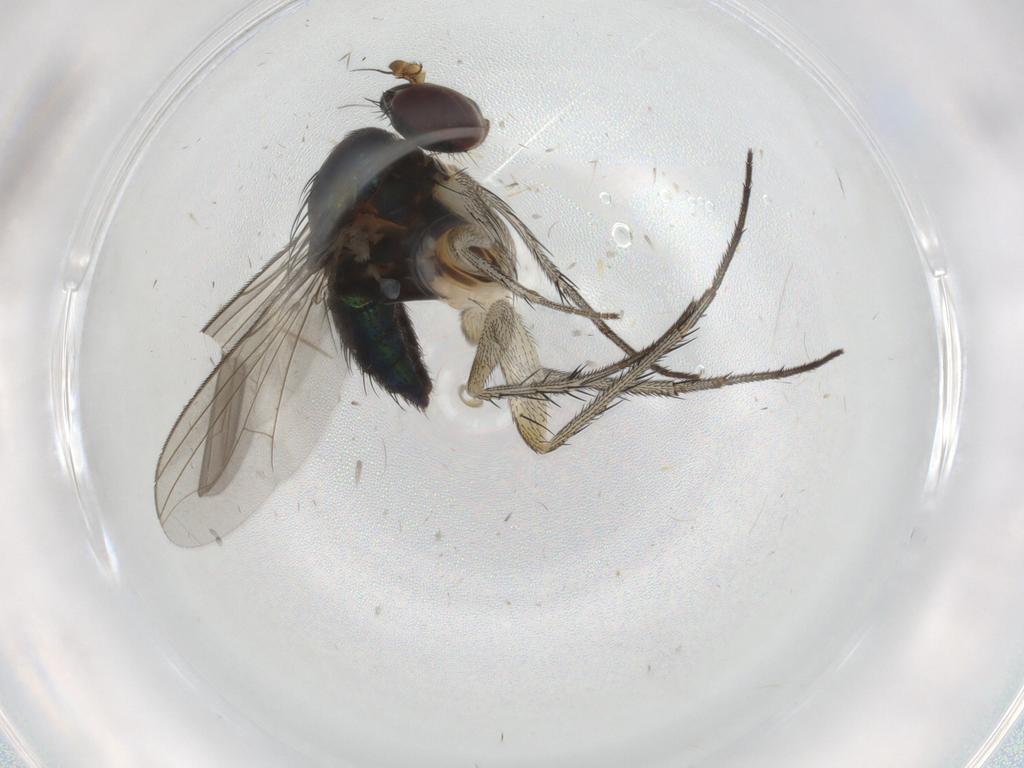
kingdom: Animalia
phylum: Arthropoda
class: Insecta
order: Diptera
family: Dolichopodidae
